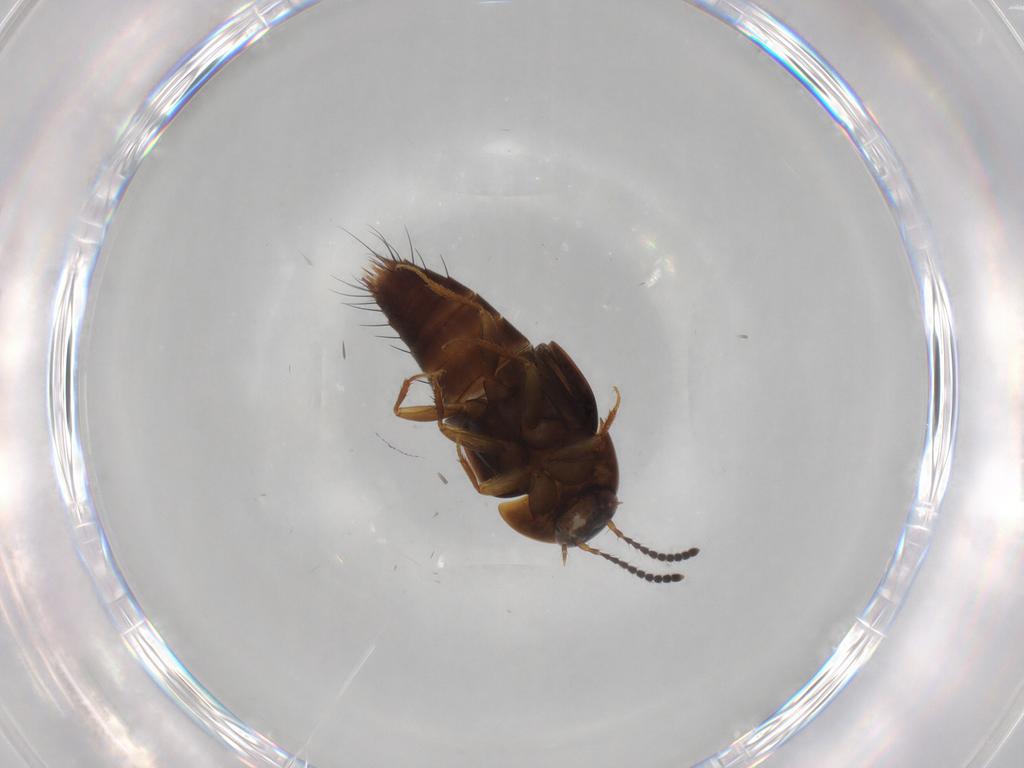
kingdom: Animalia
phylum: Arthropoda
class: Insecta
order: Coleoptera
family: Staphylinidae
